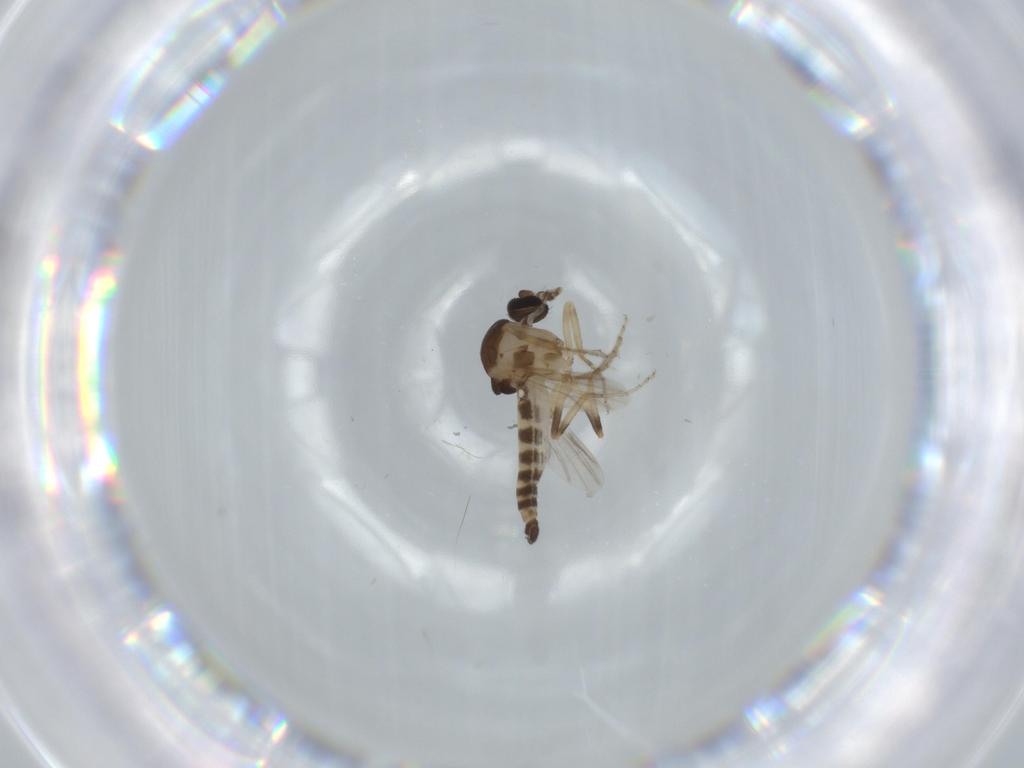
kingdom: Animalia
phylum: Arthropoda
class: Insecta
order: Diptera
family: Ceratopogonidae
